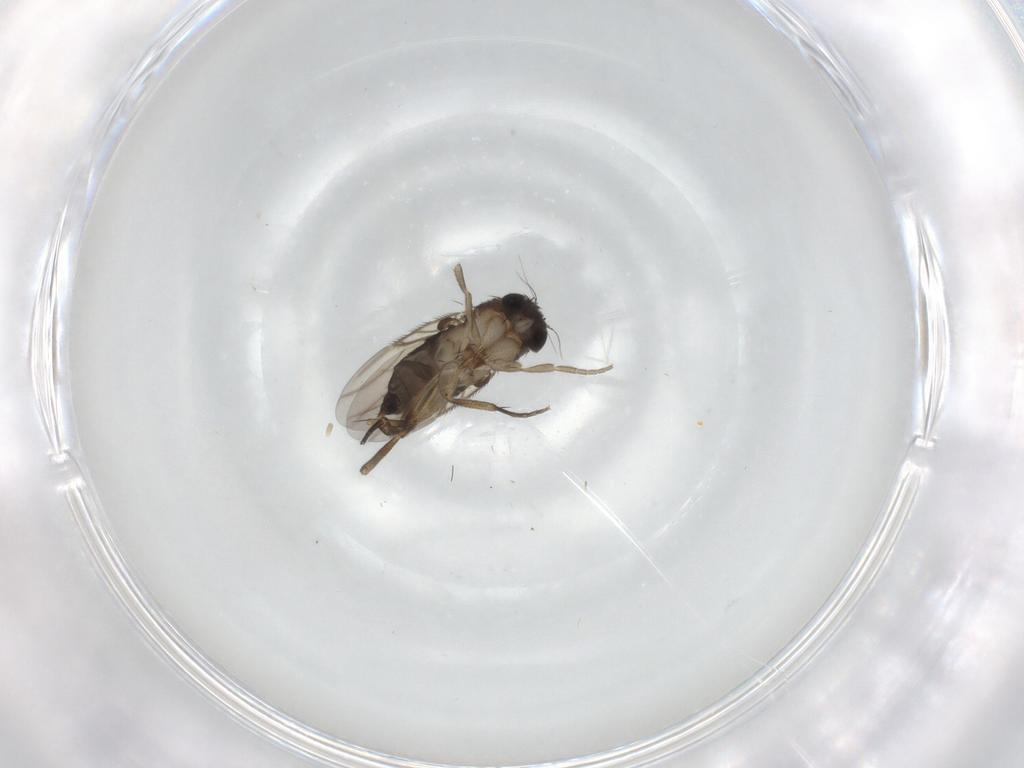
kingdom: Animalia
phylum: Arthropoda
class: Insecta
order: Diptera
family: Phoridae
